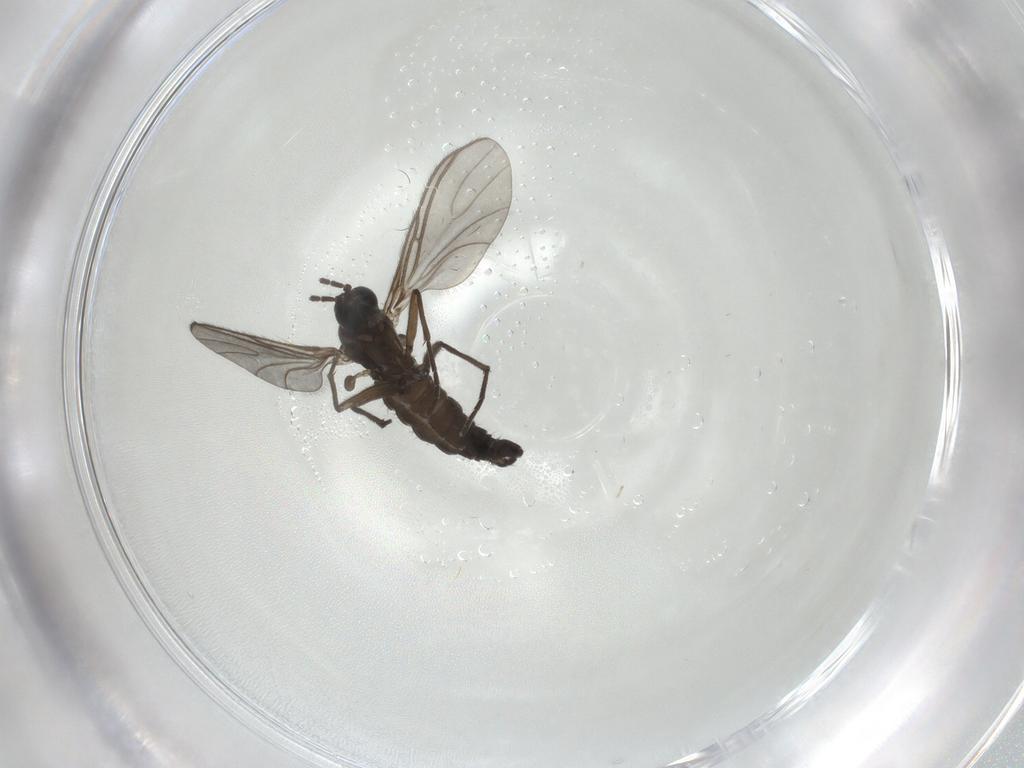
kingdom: Animalia
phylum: Arthropoda
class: Insecta
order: Diptera
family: Sciaridae
